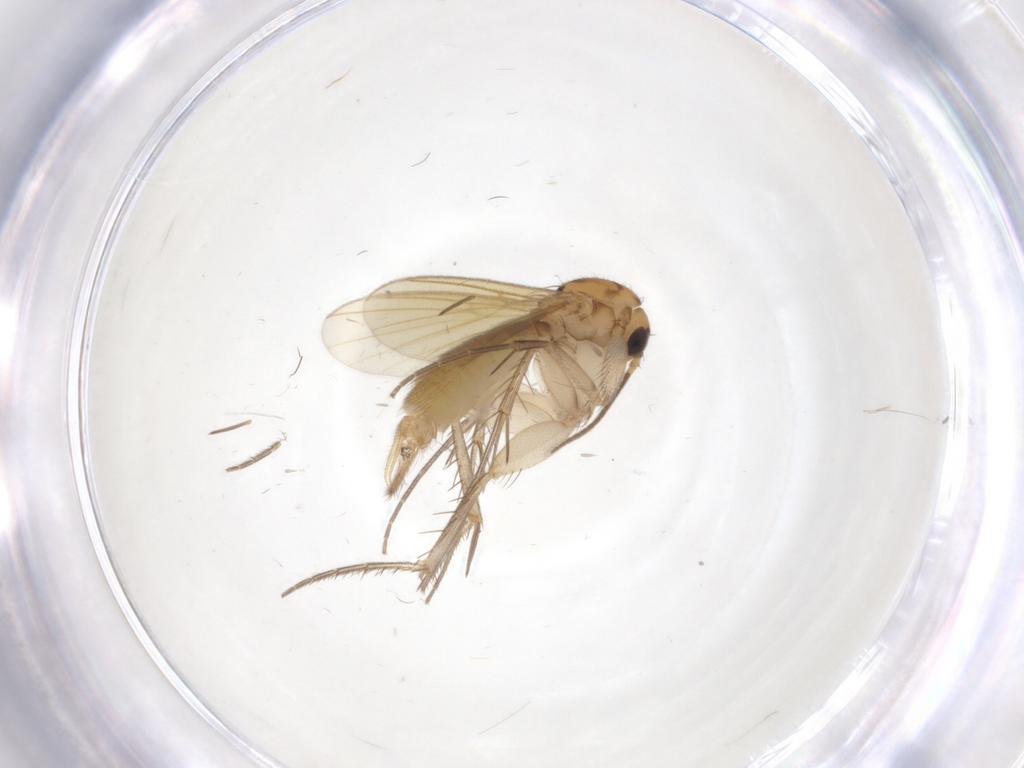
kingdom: Animalia
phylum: Arthropoda
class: Insecta
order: Diptera
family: Mycetophilidae
